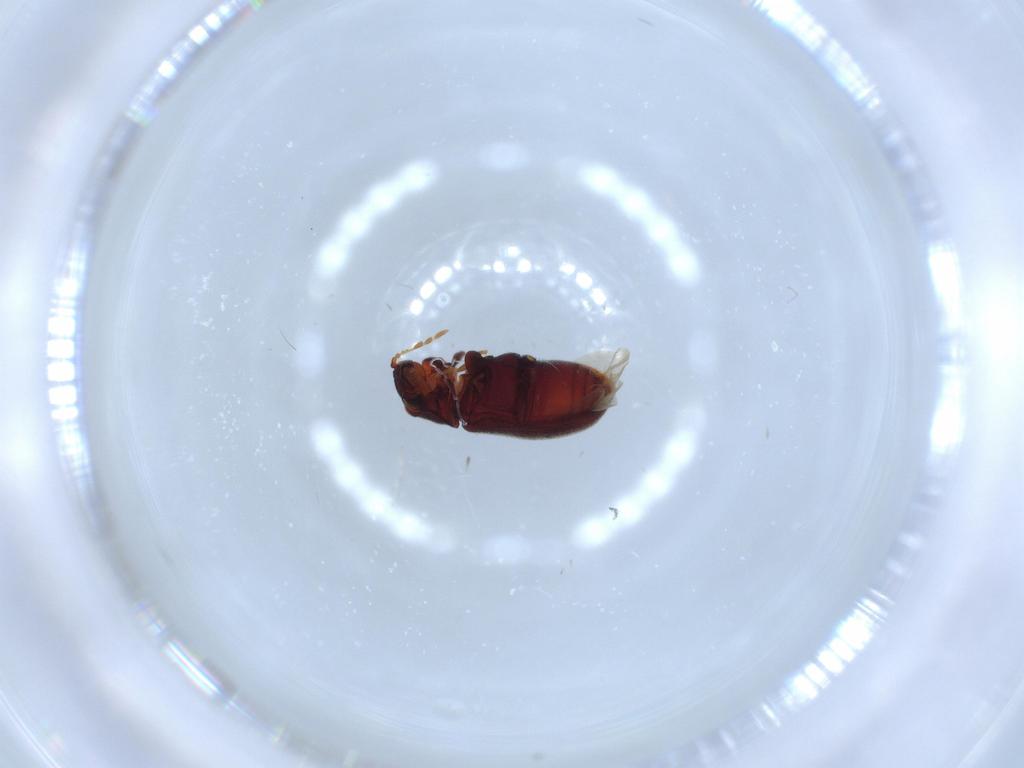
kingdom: Animalia
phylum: Arthropoda
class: Insecta
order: Coleoptera
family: Anobiidae
